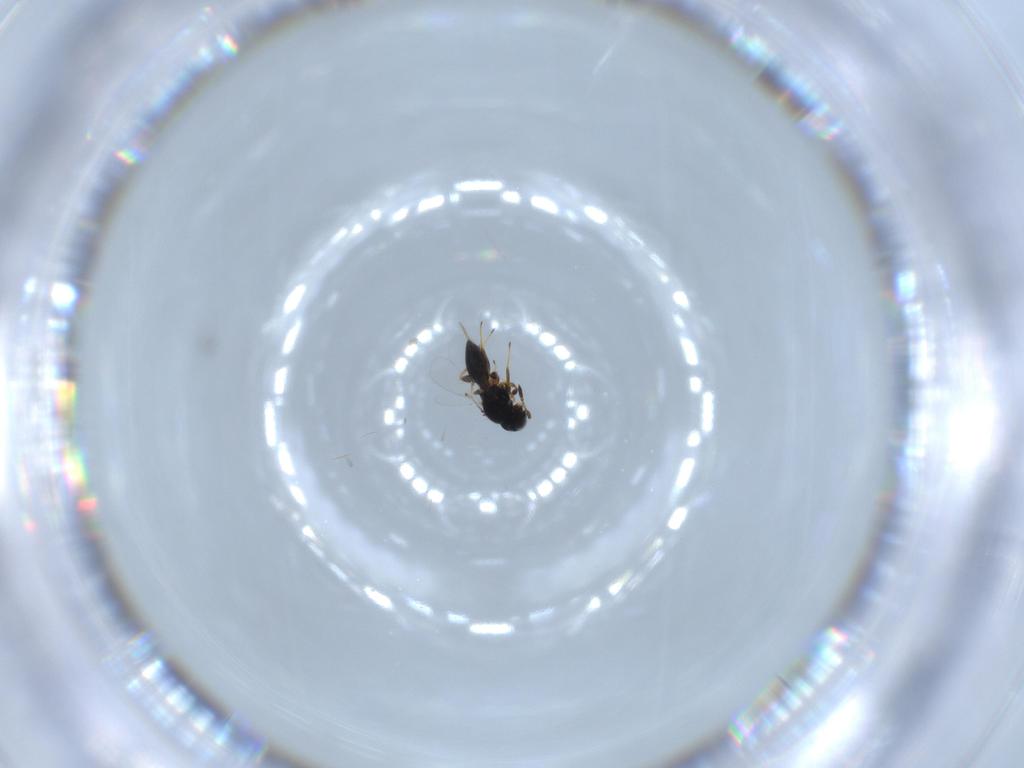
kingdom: Animalia
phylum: Arthropoda
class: Insecta
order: Hymenoptera
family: Platygastridae
